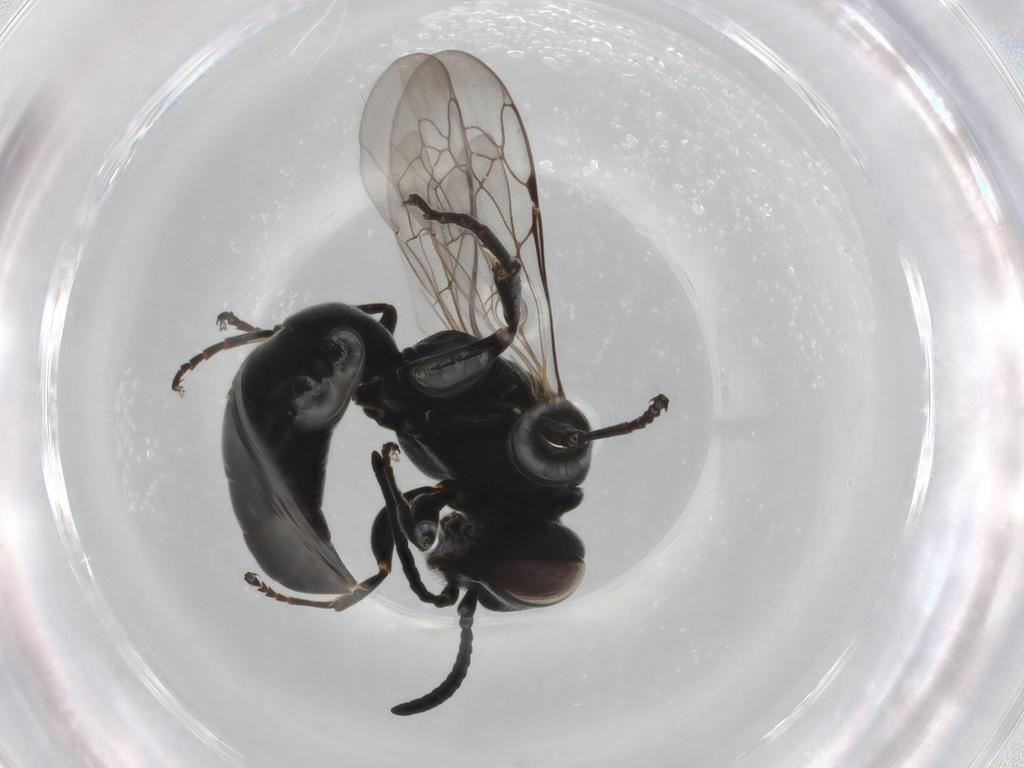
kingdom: Animalia
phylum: Arthropoda
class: Insecta
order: Hymenoptera
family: Crabronidae
